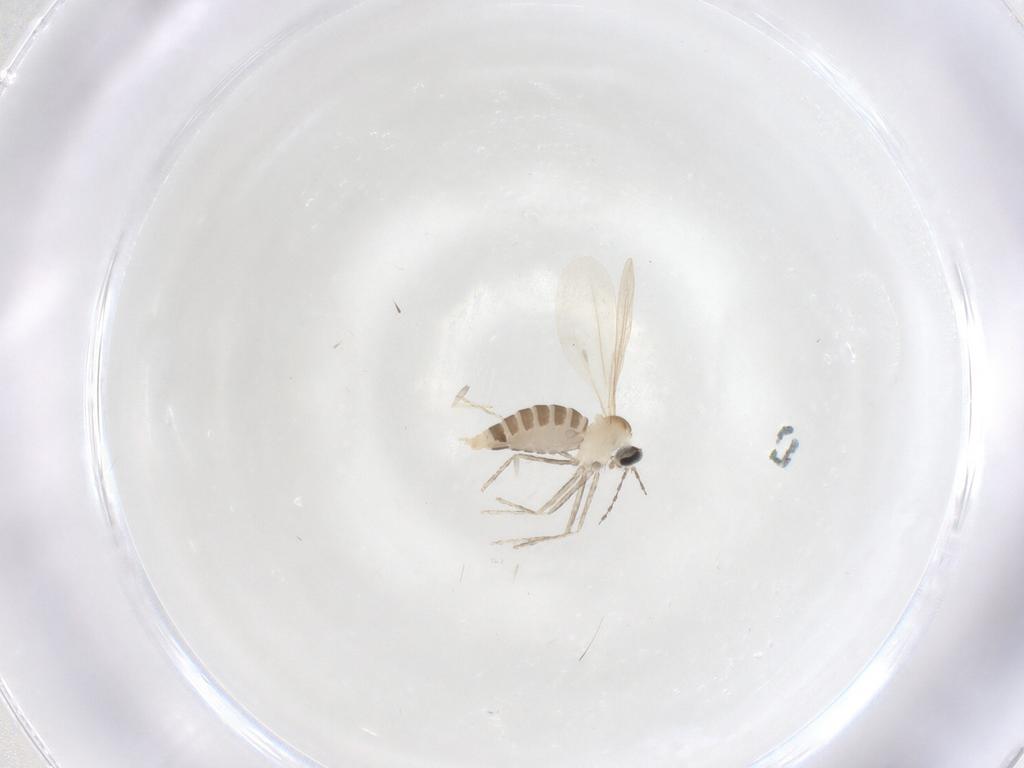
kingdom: Animalia
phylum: Arthropoda
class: Insecta
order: Diptera
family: Cecidomyiidae
